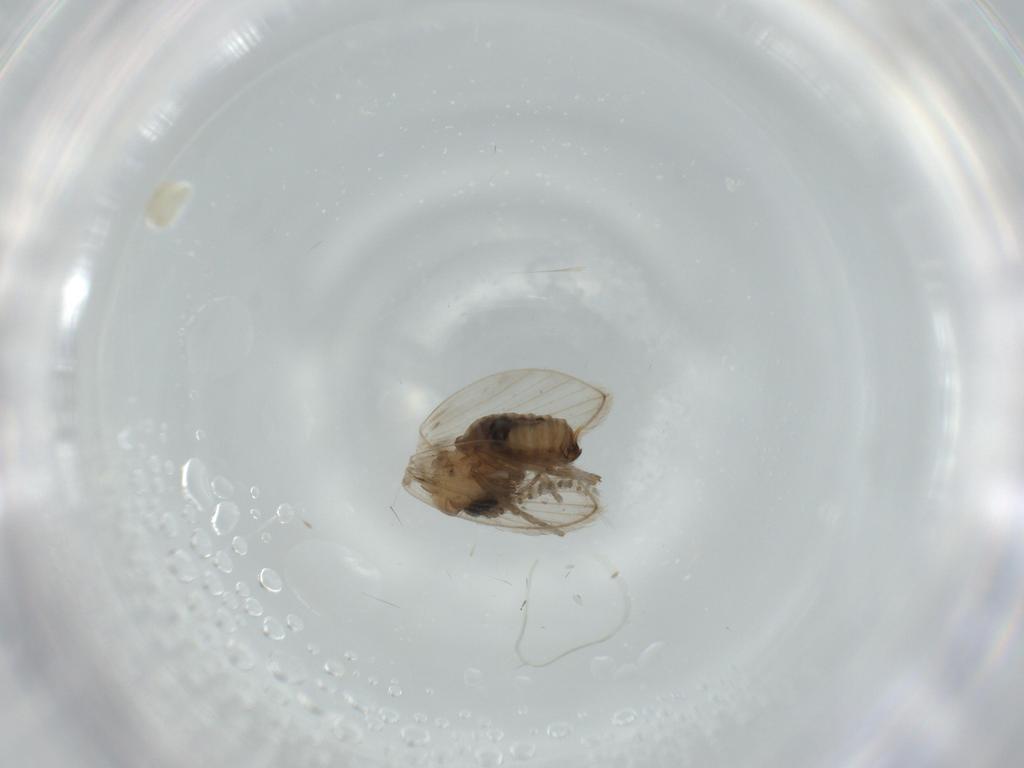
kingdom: Animalia
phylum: Arthropoda
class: Insecta
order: Diptera
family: Psychodidae
